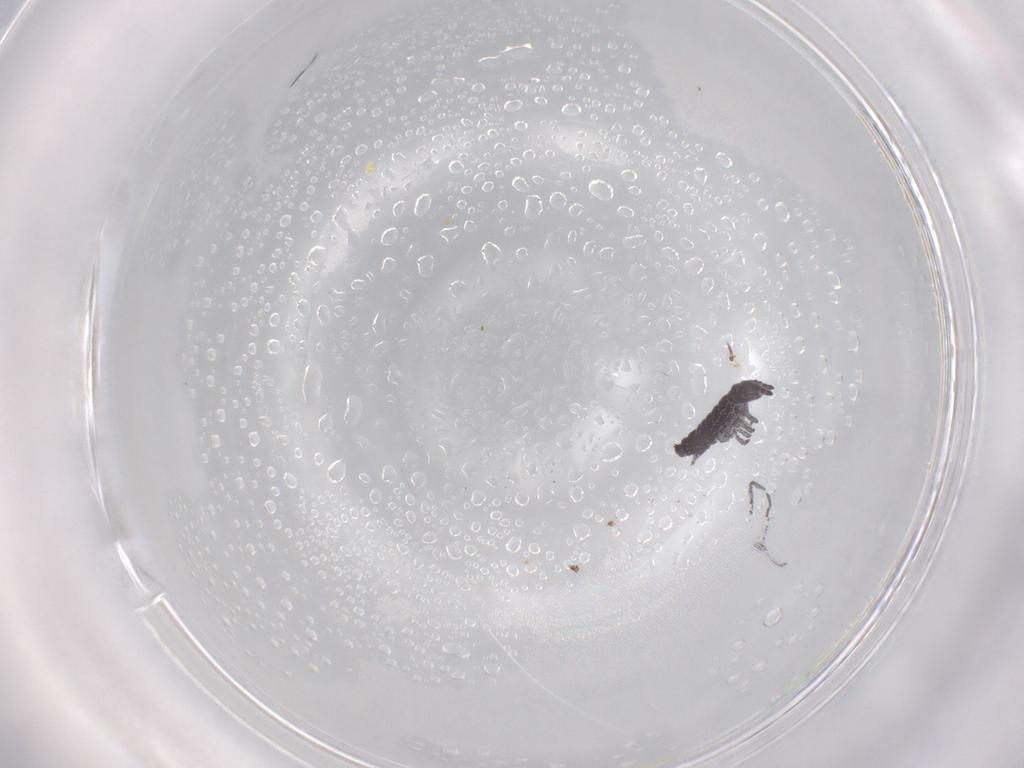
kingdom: Animalia
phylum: Arthropoda
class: Collembola
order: Poduromorpha
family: Hypogastruridae
